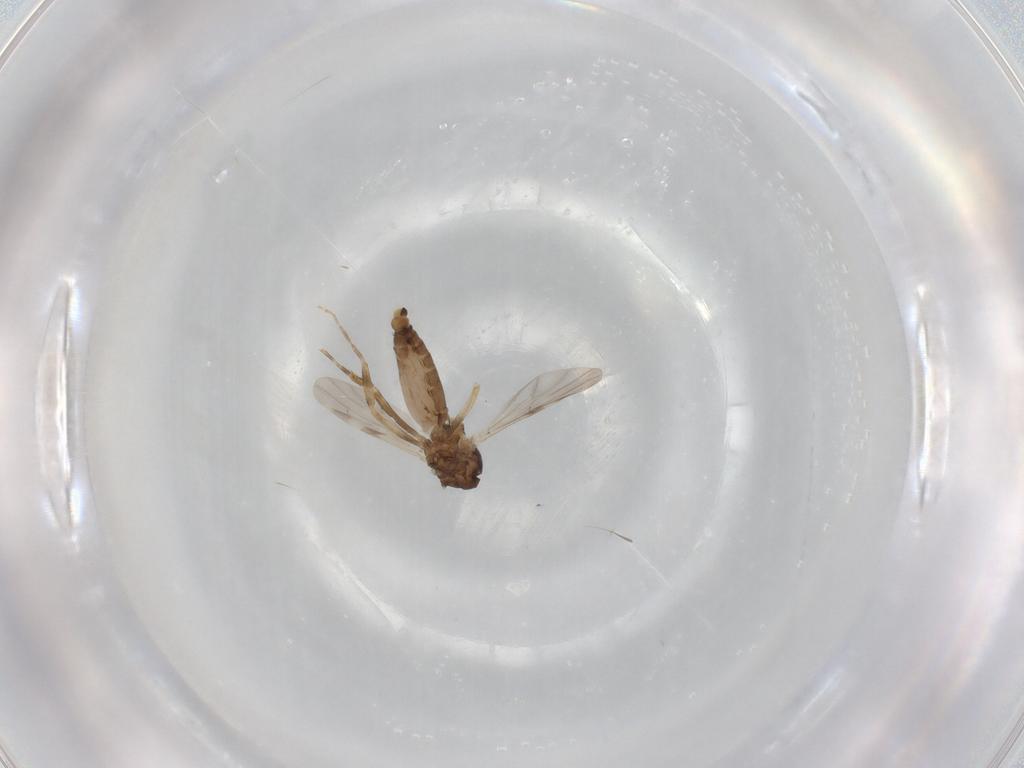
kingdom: Animalia
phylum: Arthropoda
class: Insecta
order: Diptera
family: Ceratopogonidae
